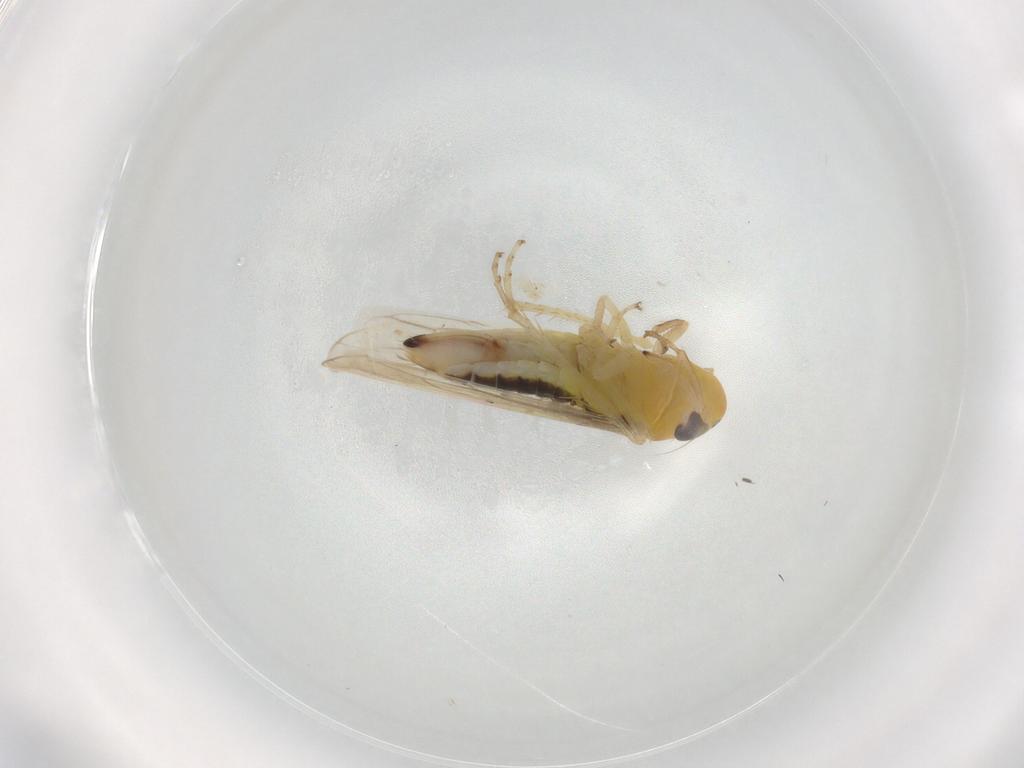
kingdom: Animalia
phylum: Arthropoda
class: Insecta
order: Hemiptera
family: Cicadellidae
